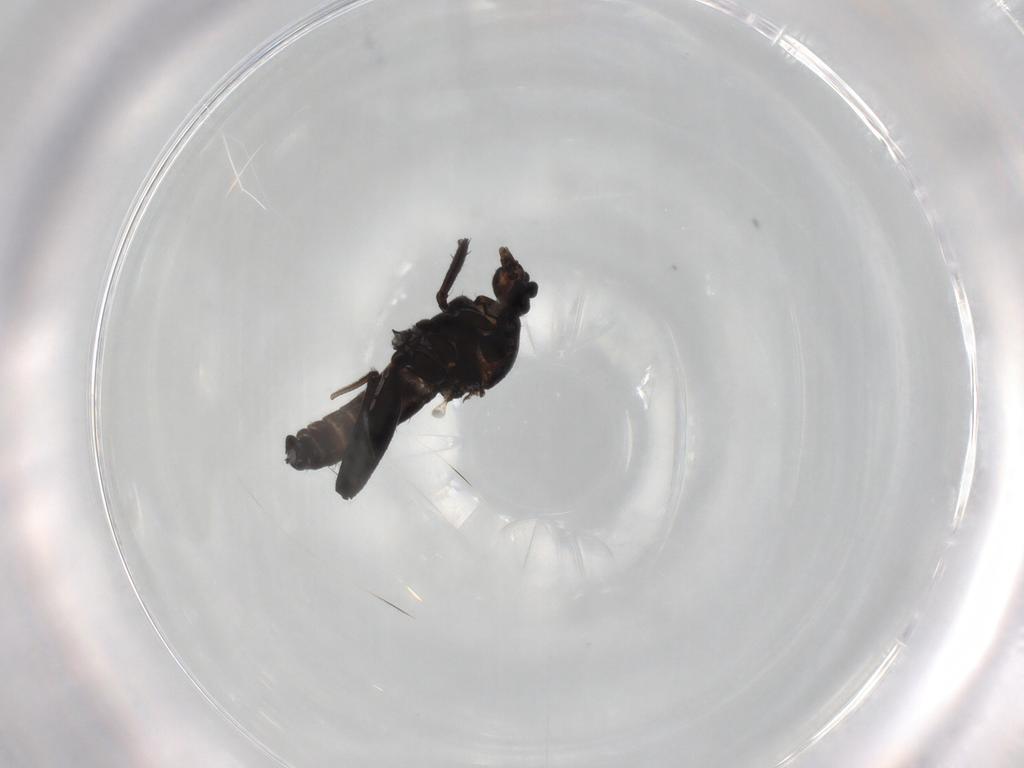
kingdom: Animalia
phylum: Arthropoda
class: Insecta
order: Diptera
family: Ceratopogonidae
